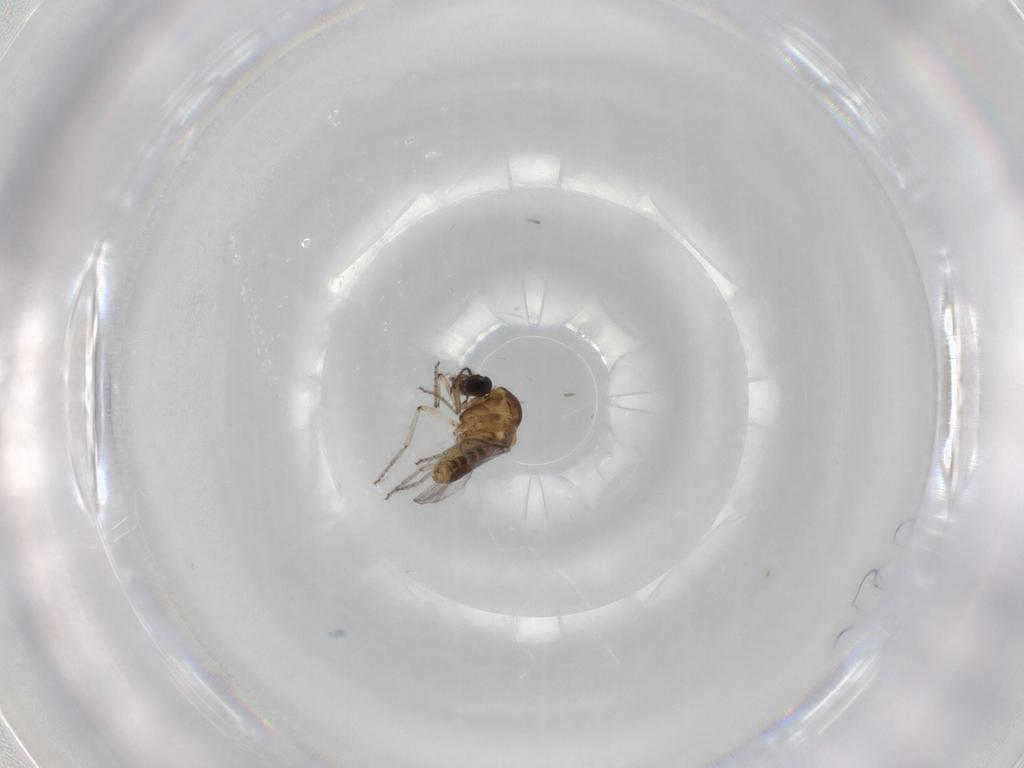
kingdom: Animalia
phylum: Arthropoda
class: Insecta
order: Diptera
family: Ceratopogonidae
